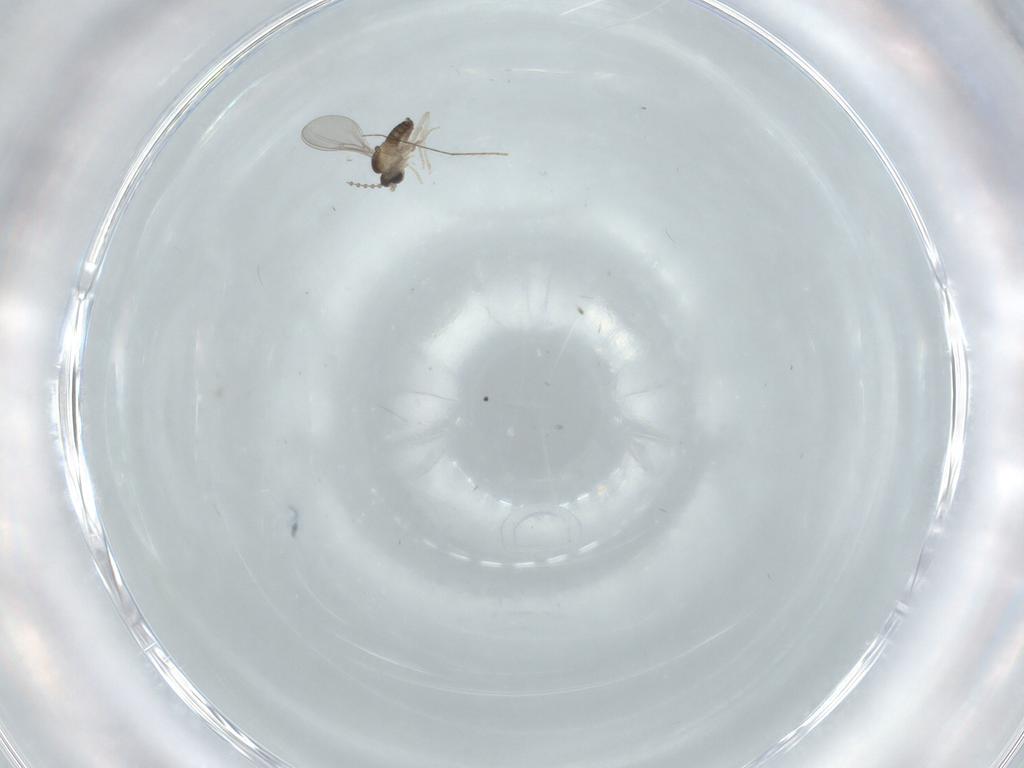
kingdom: Animalia
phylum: Arthropoda
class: Insecta
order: Diptera
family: Cecidomyiidae
